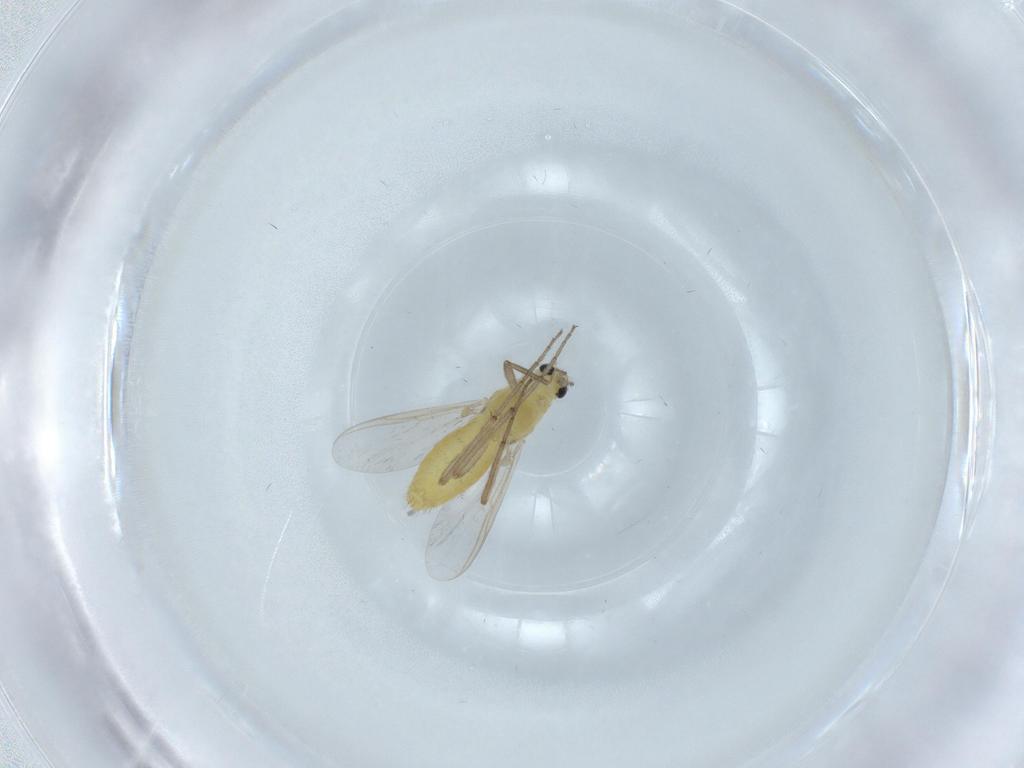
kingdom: Animalia
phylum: Arthropoda
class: Insecta
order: Diptera
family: Chironomidae
